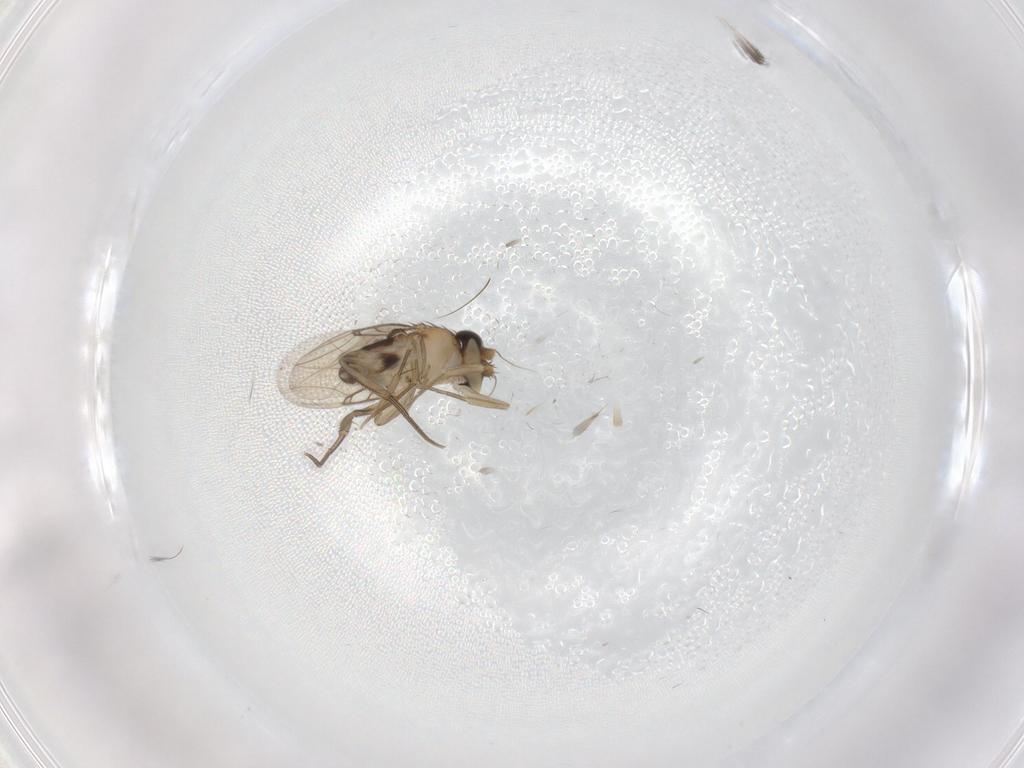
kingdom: Animalia
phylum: Arthropoda
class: Insecta
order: Diptera
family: Phoridae
